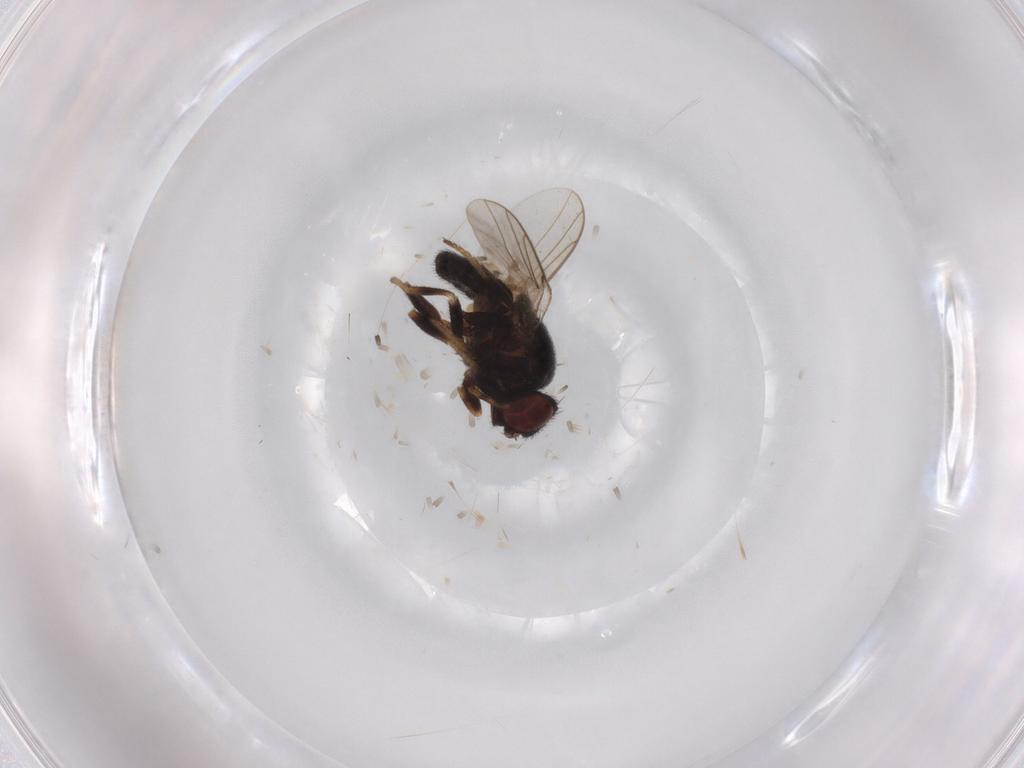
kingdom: Animalia
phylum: Arthropoda
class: Insecta
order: Diptera
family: Chloropidae
